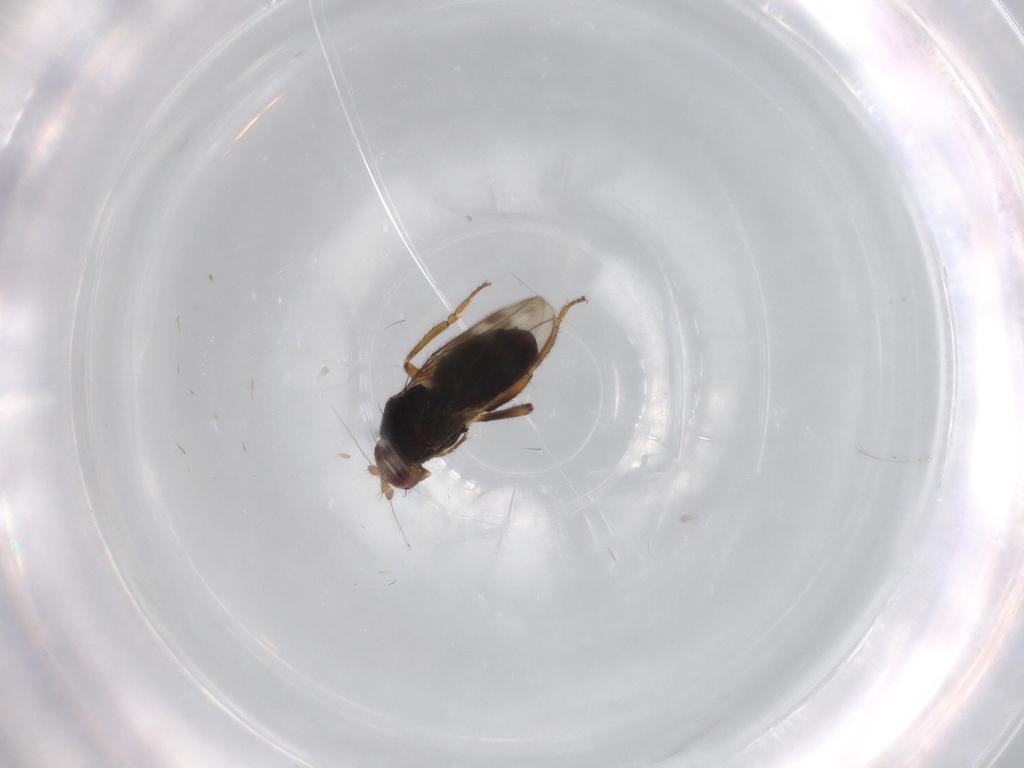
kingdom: Animalia
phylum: Arthropoda
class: Insecta
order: Diptera
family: Sphaeroceridae
